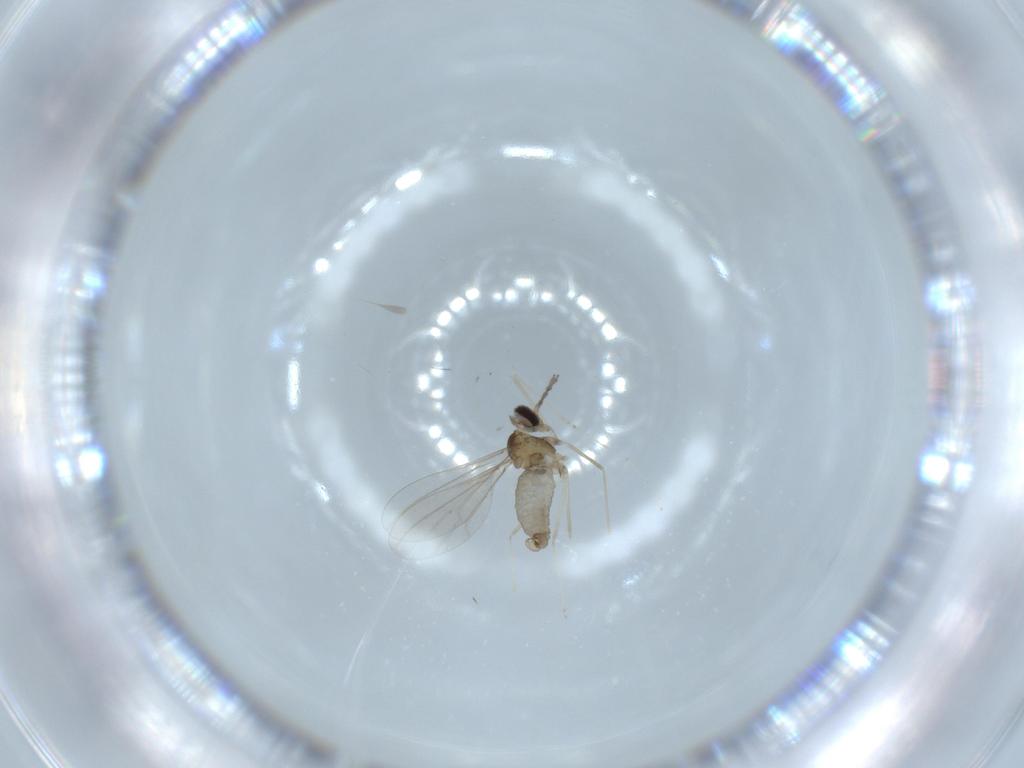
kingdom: Animalia
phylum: Arthropoda
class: Insecta
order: Diptera
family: Cecidomyiidae
